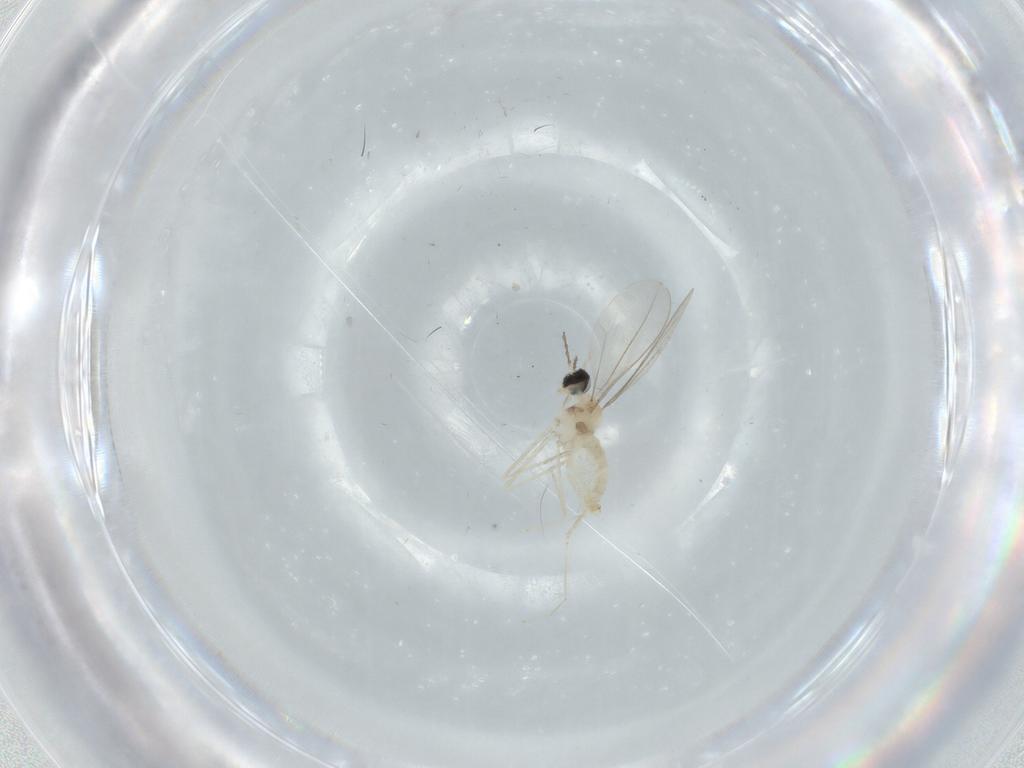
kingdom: Animalia
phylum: Arthropoda
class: Insecta
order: Diptera
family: Cecidomyiidae
